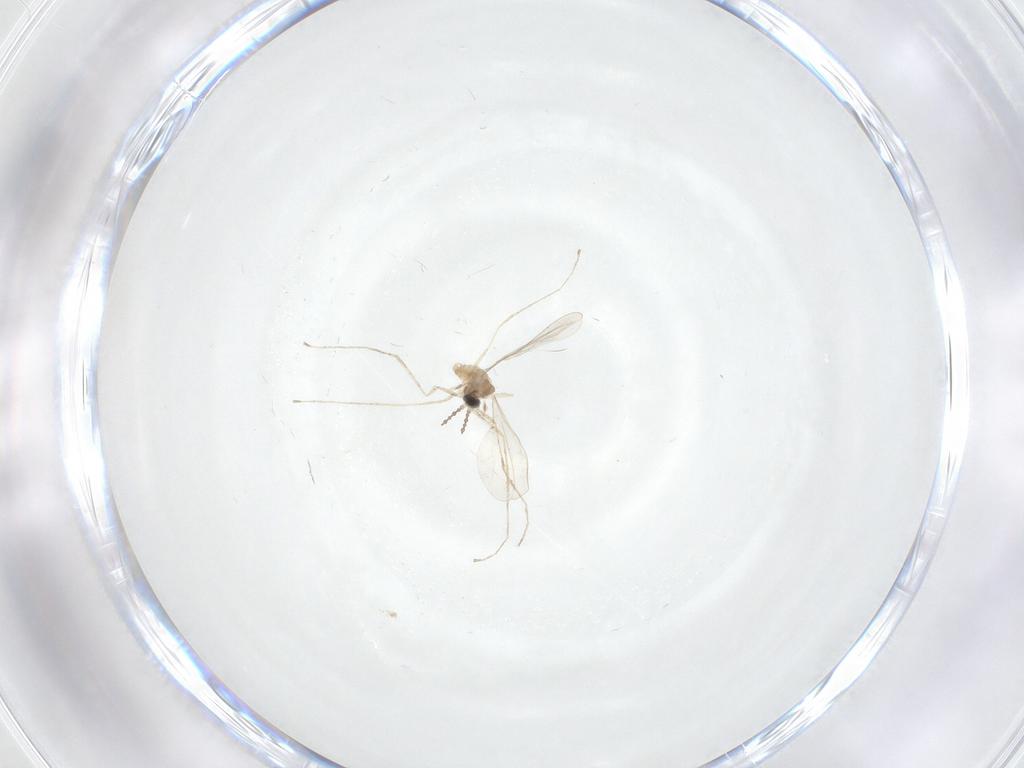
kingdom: Animalia
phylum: Arthropoda
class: Insecta
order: Diptera
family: Cecidomyiidae
